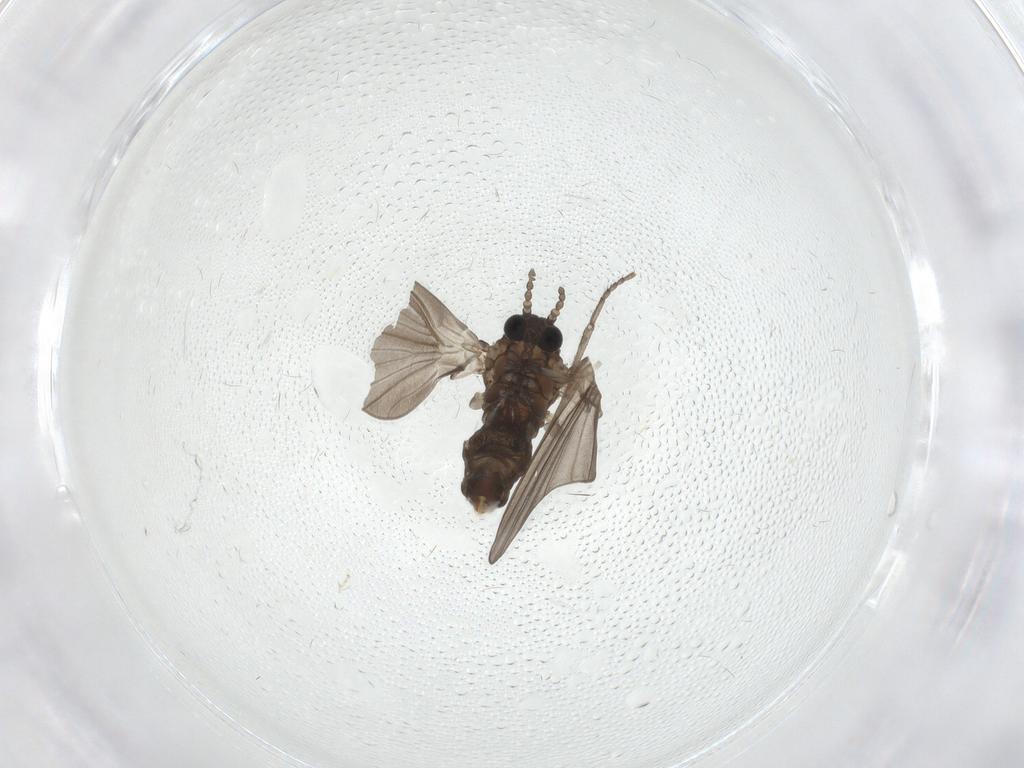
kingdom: Animalia
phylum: Arthropoda
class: Insecta
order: Diptera
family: Psychodidae
